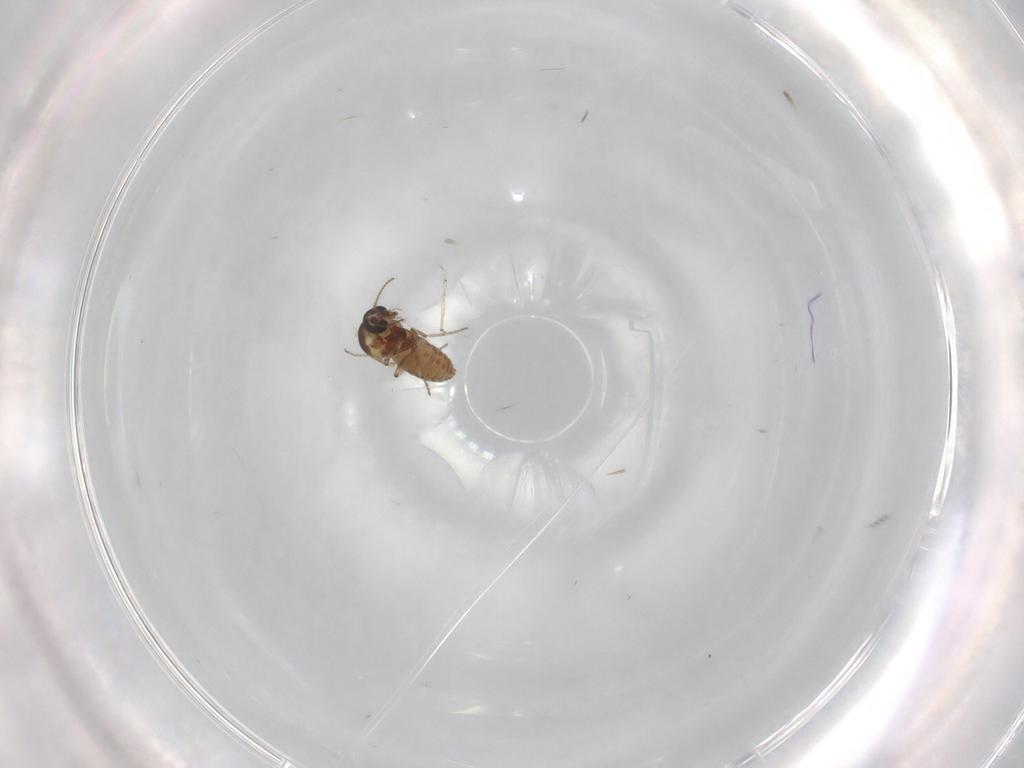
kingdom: Animalia
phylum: Arthropoda
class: Insecta
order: Diptera
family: Ceratopogonidae
